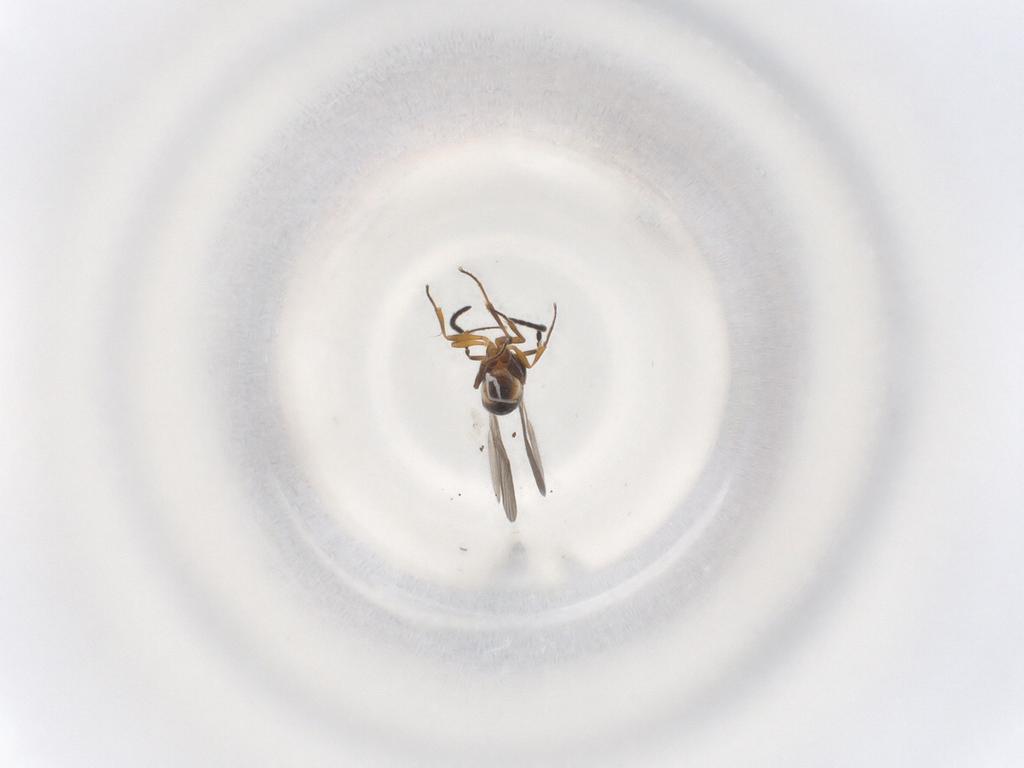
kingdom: Animalia
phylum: Arthropoda
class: Insecta
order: Hymenoptera
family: Scelionidae
